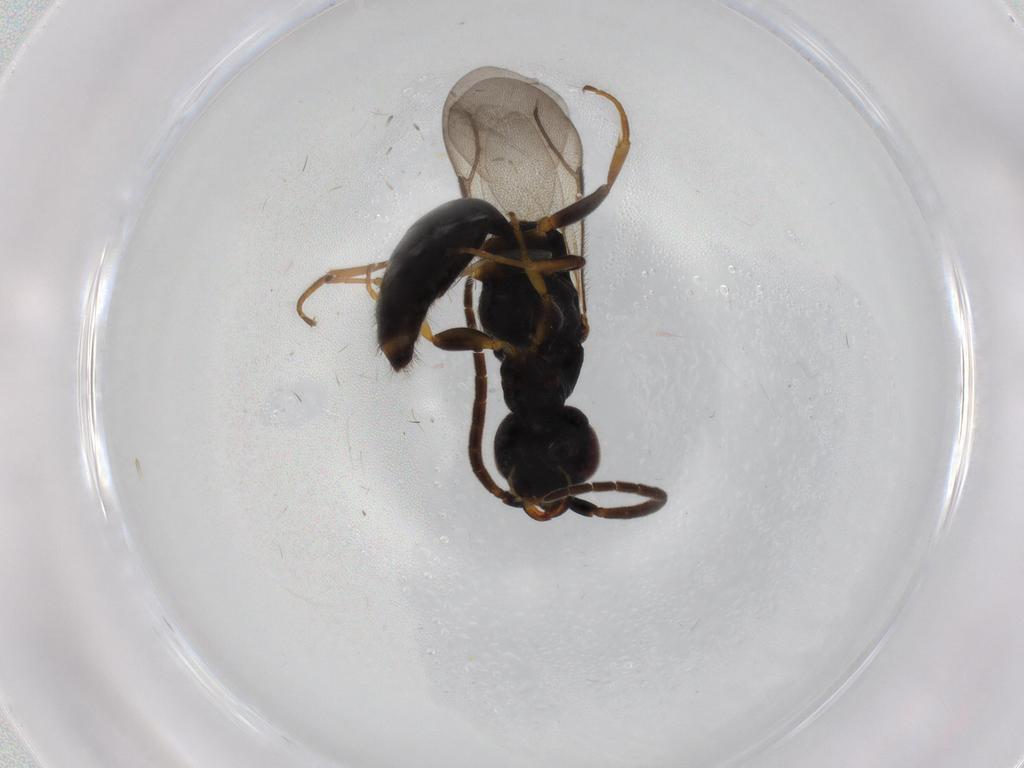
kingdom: Animalia
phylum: Arthropoda
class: Insecta
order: Hymenoptera
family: Bethylidae
